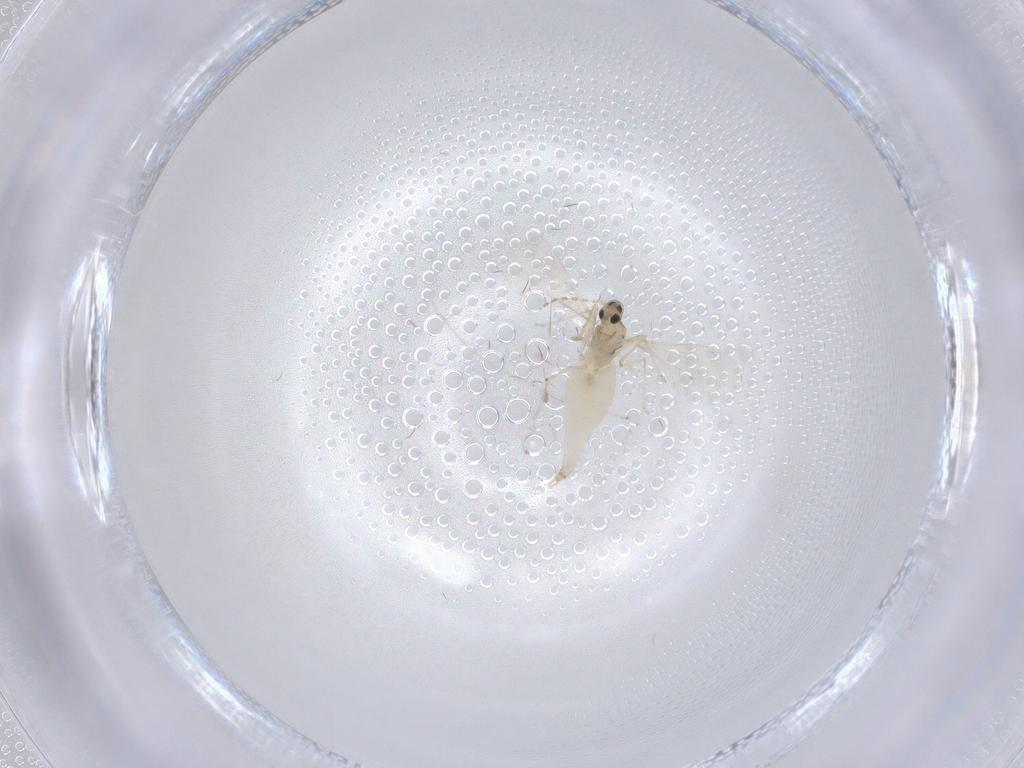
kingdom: Animalia
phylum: Arthropoda
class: Insecta
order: Diptera
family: Cecidomyiidae
